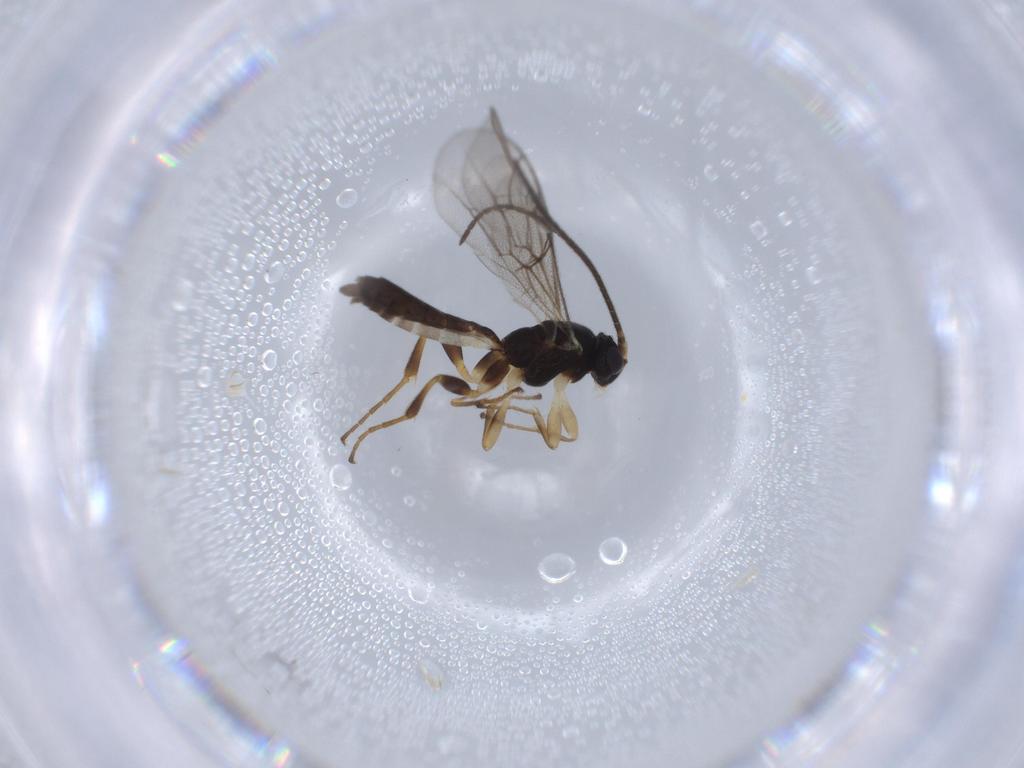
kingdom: Animalia
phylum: Arthropoda
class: Insecta
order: Hymenoptera
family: Ichneumonidae
